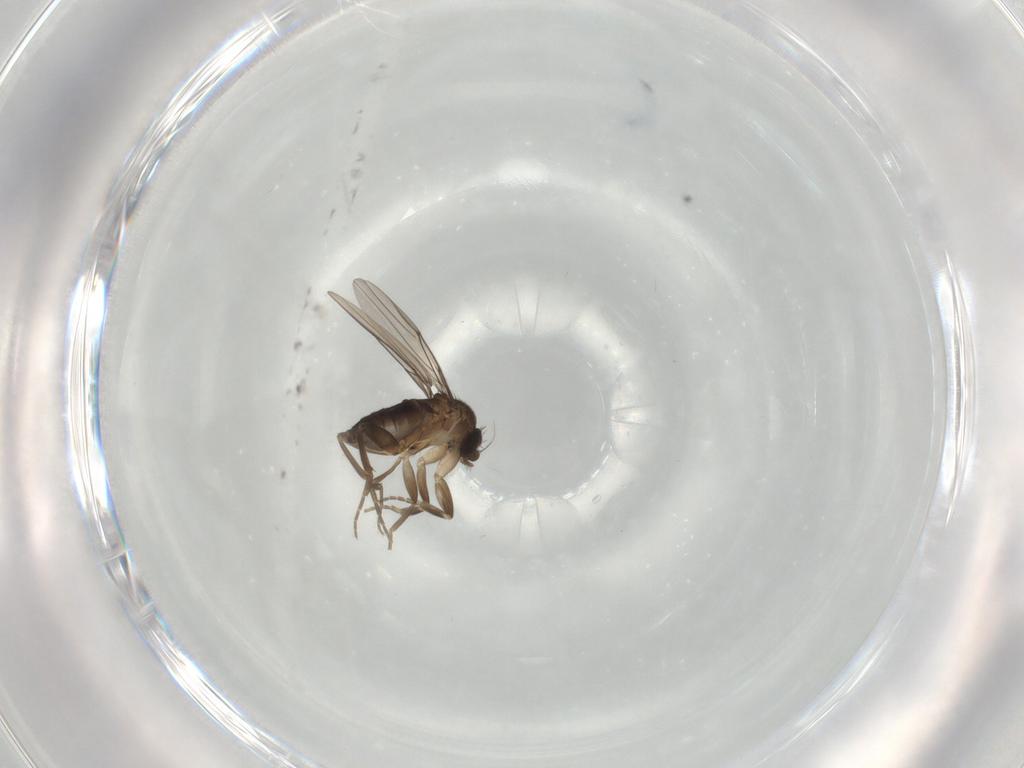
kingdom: Animalia
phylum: Arthropoda
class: Insecta
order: Diptera
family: Phoridae
